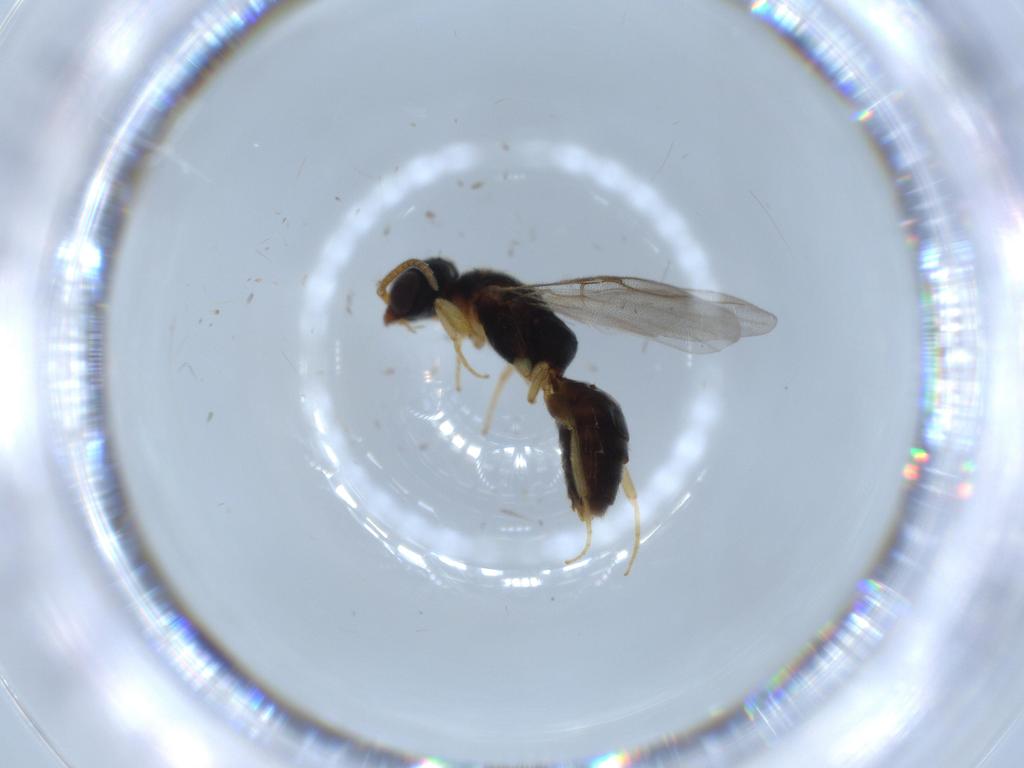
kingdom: Animalia
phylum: Arthropoda
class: Insecta
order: Hymenoptera
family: Bethylidae
